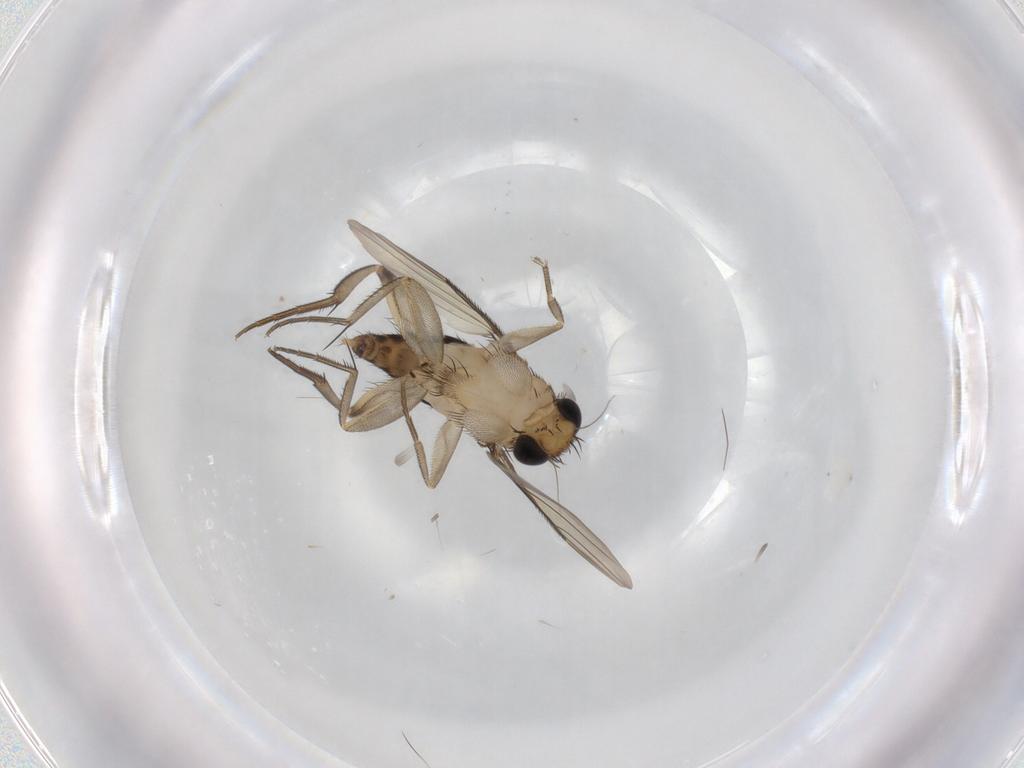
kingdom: Animalia
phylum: Arthropoda
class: Insecta
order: Diptera
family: Phoridae
